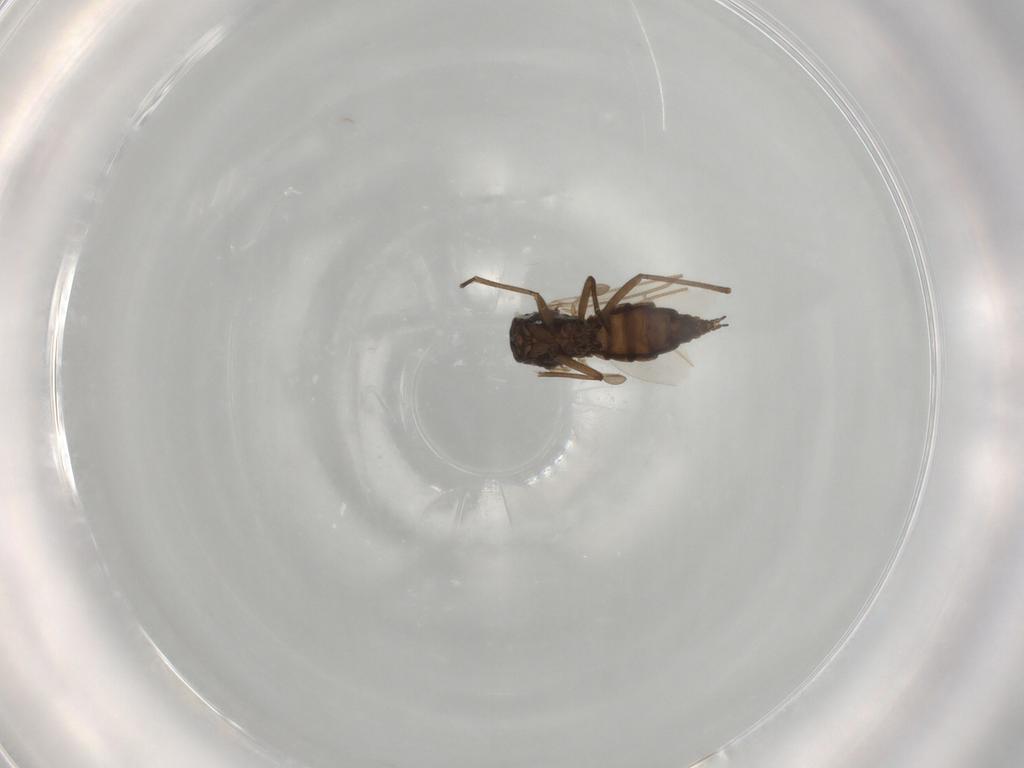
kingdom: Animalia
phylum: Arthropoda
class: Insecta
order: Diptera
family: Sciaridae
